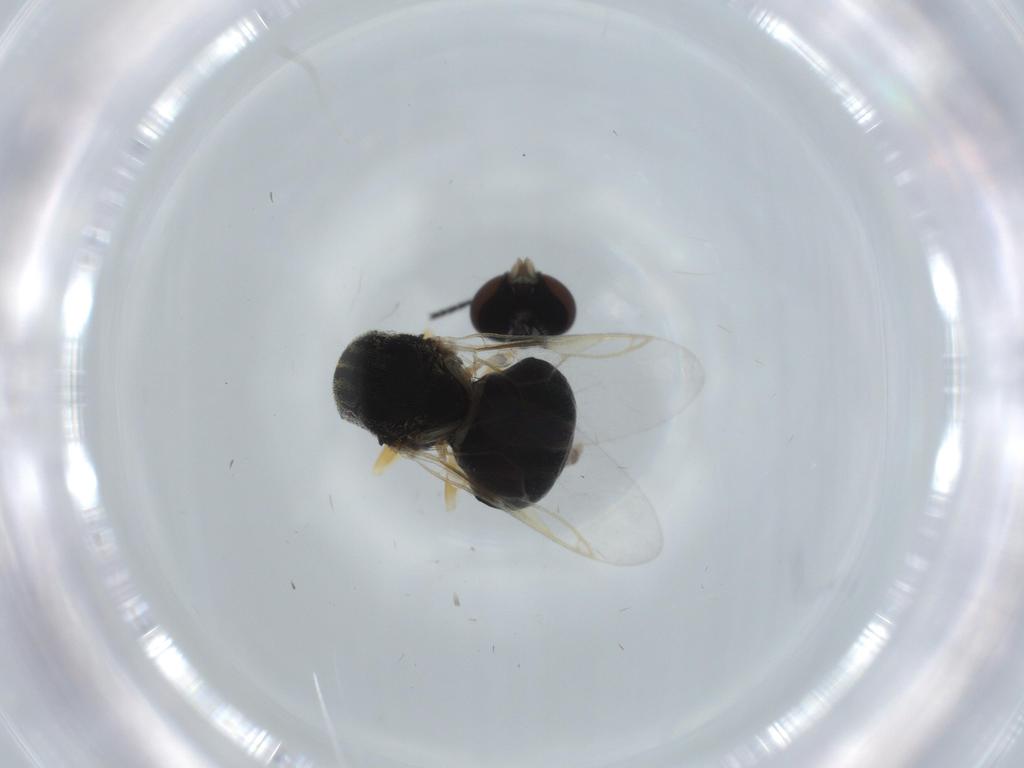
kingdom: Animalia
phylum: Arthropoda
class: Insecta
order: Diptera
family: Stratiomyidae
